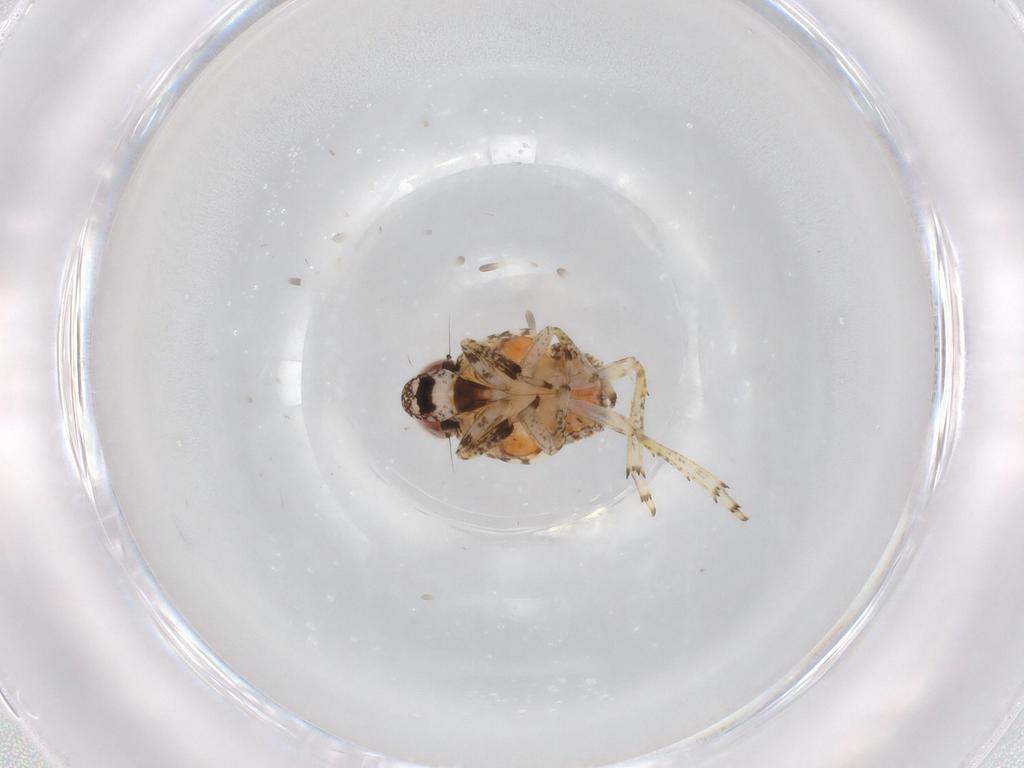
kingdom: Animalia
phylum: Arthropoda
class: Insecta
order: Hemiptera
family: Issidae
